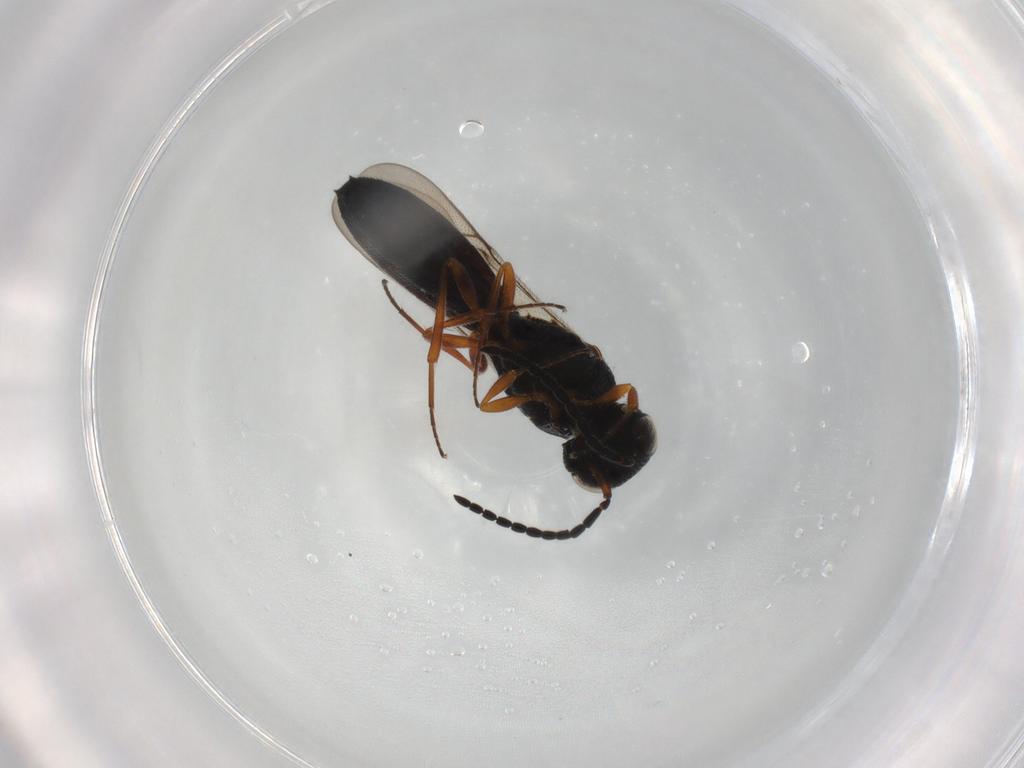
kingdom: Animalia
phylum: Arthropoda
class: Insecta
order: Hymenoptera
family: Scelionidae
